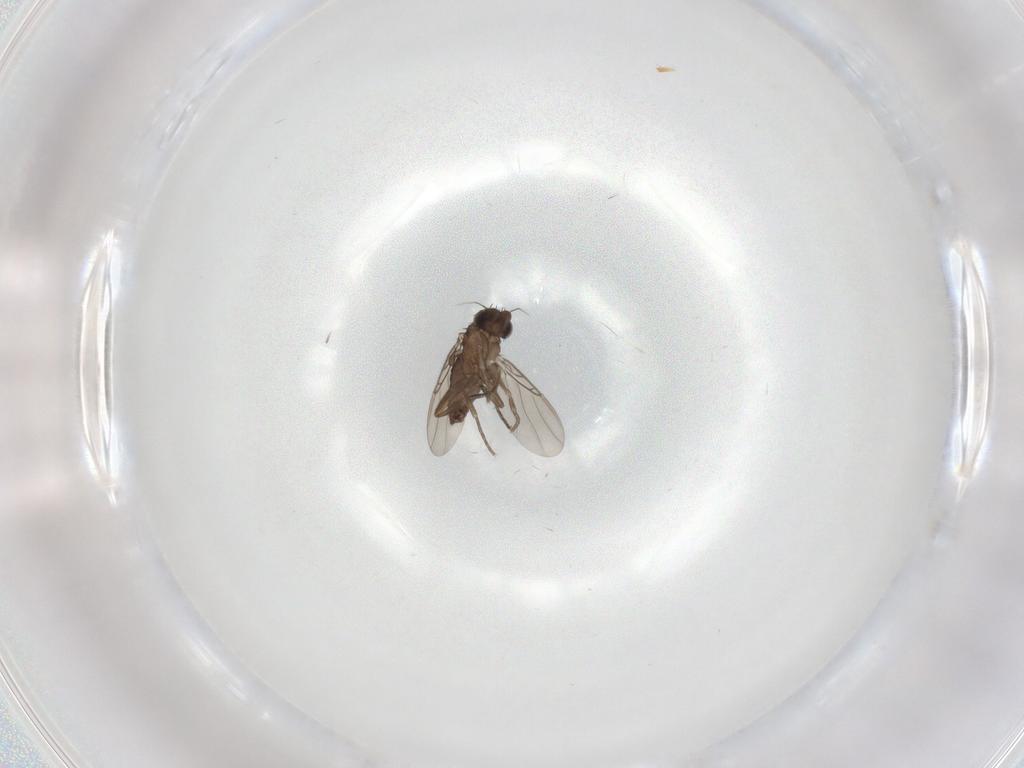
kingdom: Animalia
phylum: Arthropoda
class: Insecta
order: Diptera
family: Phoridae
